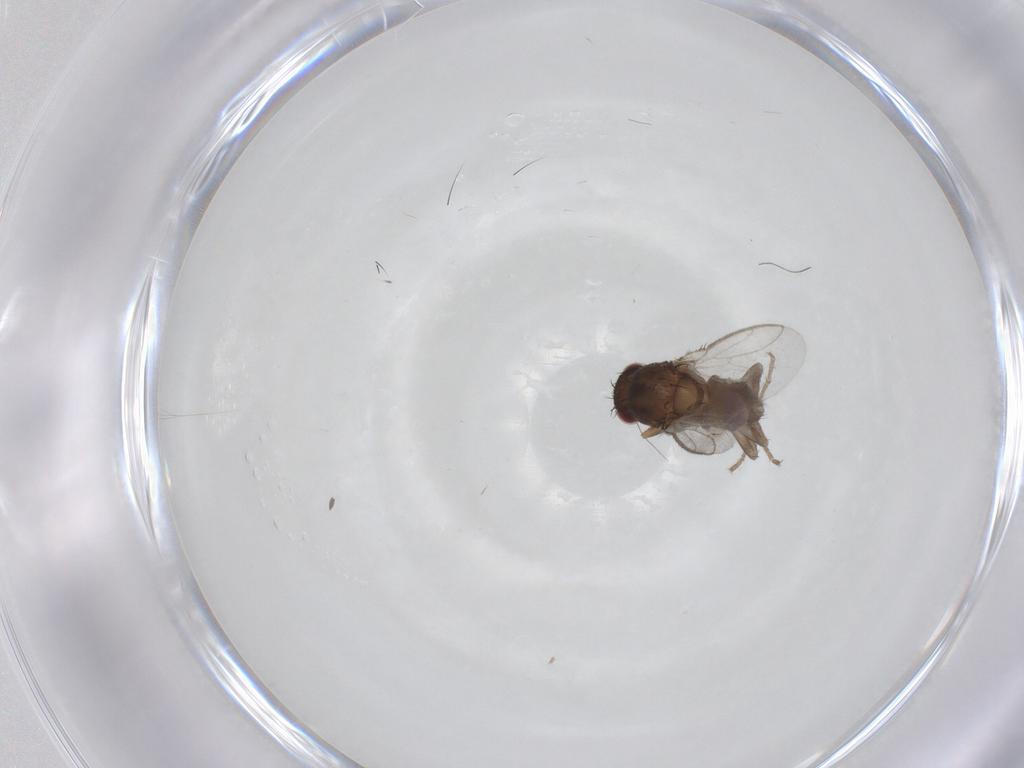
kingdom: Animalia
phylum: Arthropoda
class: Insecta
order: Diptera
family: Sphaeroceridae
